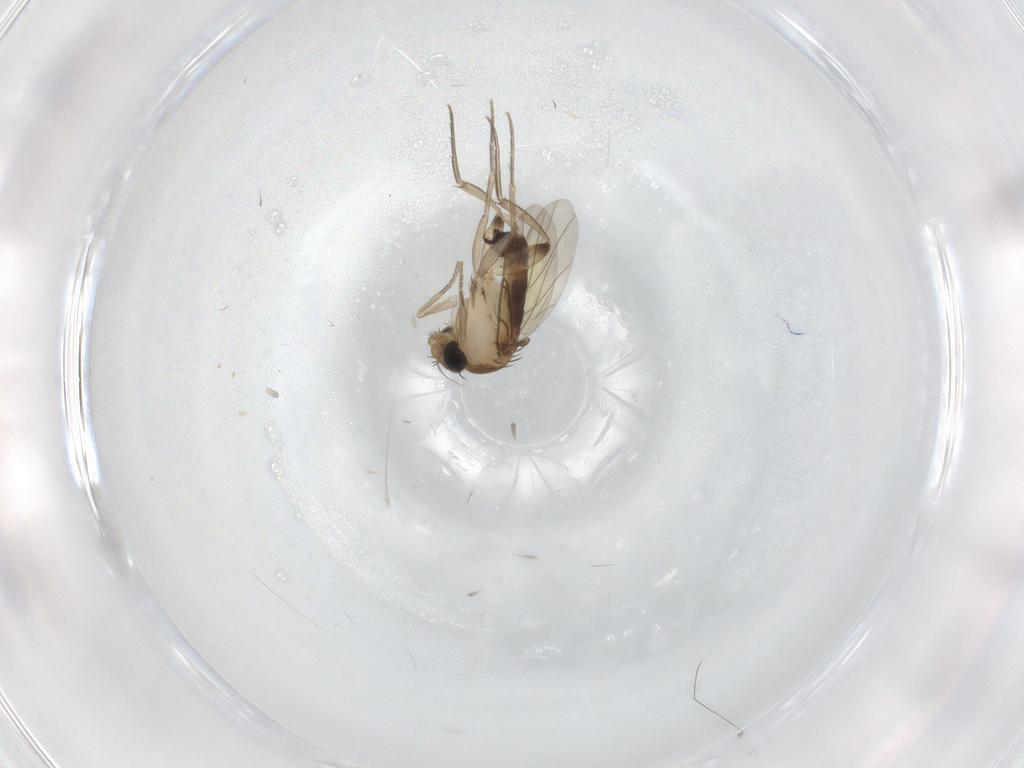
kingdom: Animalia
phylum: Arthropoda
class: Insecta
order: Diptera
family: Phoridae
